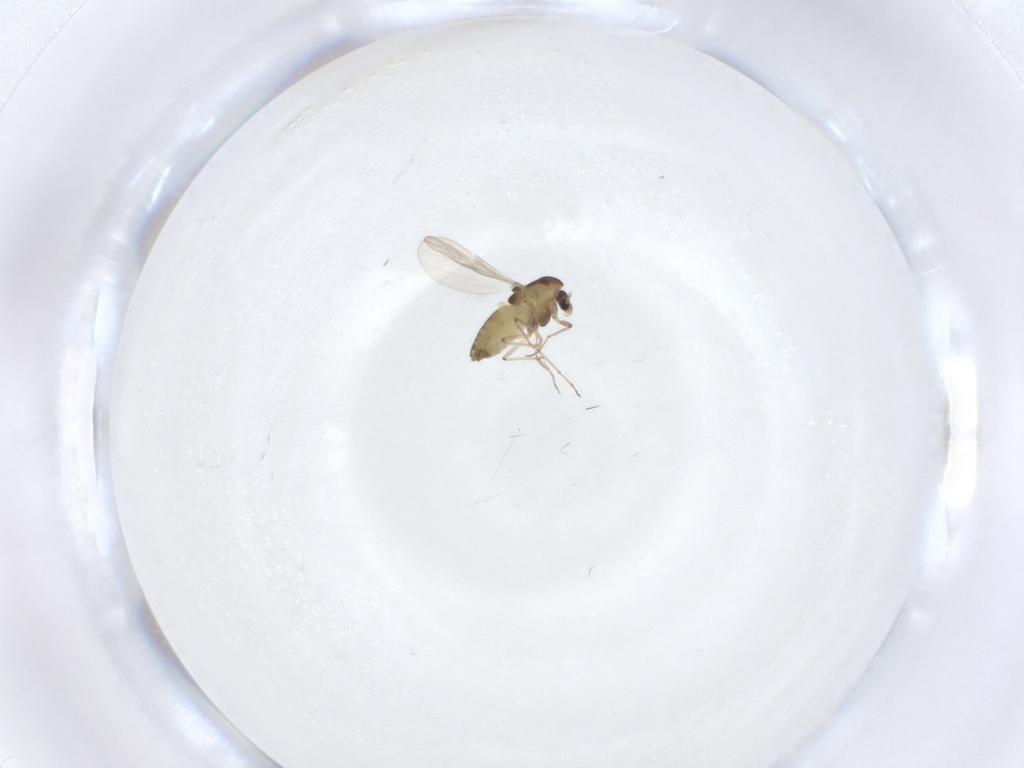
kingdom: Animalia
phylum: Arthropoda
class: Insecta
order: Diptera
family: Chironomidae
